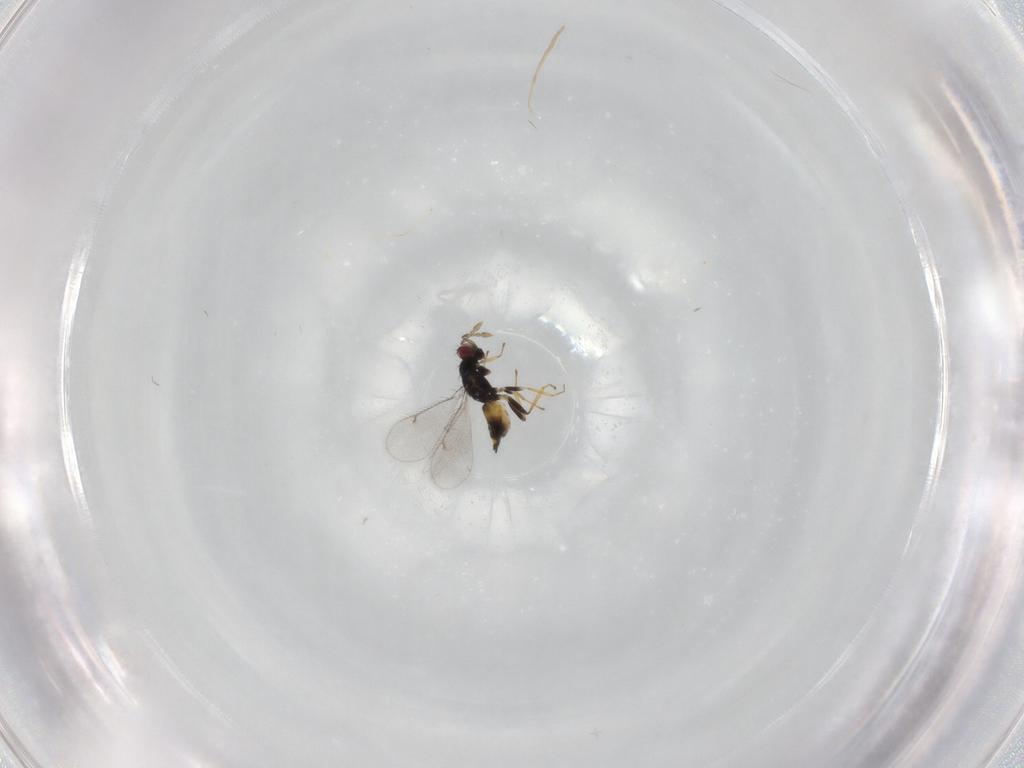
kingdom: Animalia
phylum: Arthropoda
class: Insecta
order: Hymenoptera
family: Eulophidae
